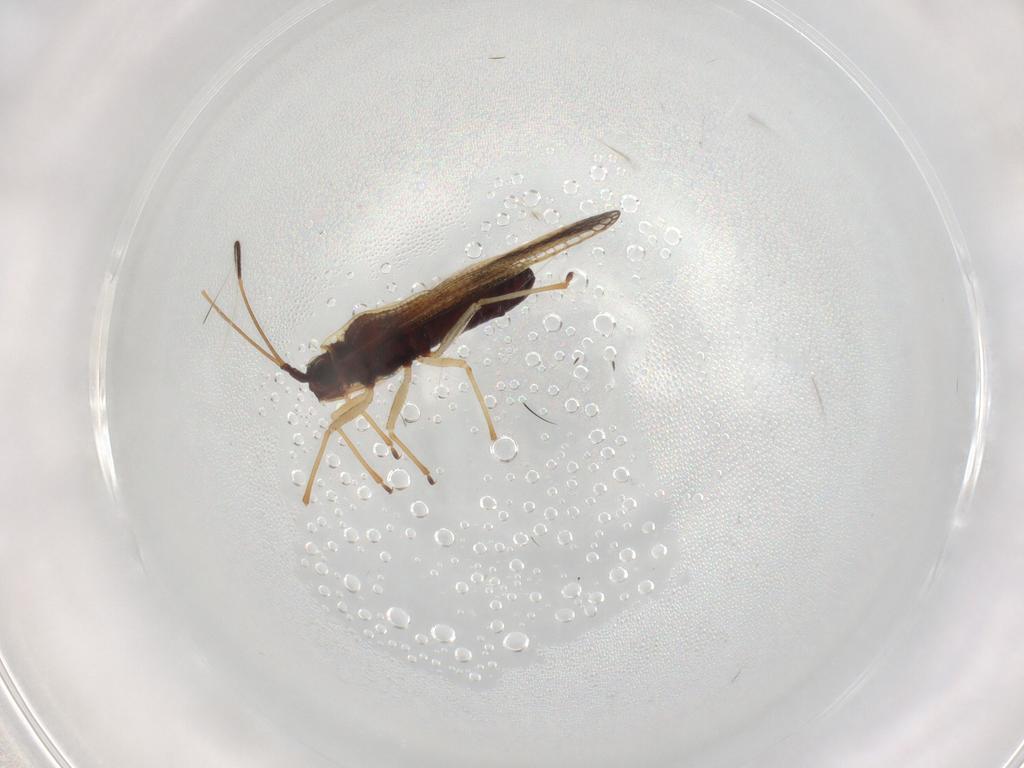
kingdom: Animalia
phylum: Arthropoda
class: Insecta
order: Hemiptera
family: Tingidae
